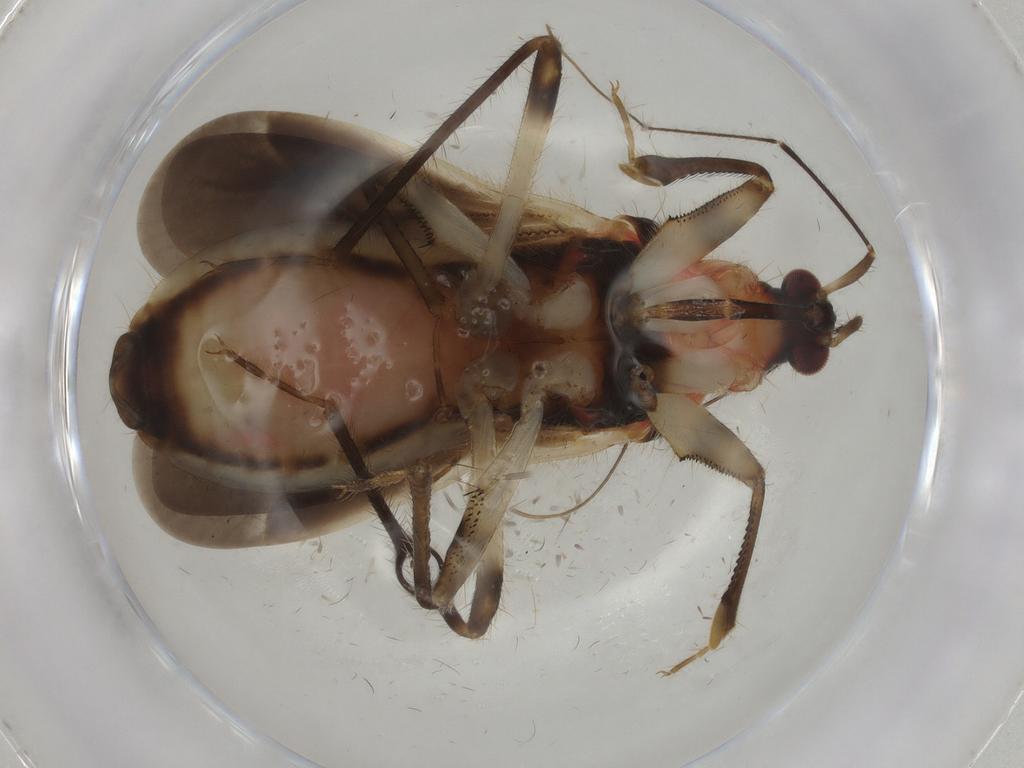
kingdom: Animalia
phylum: Arthropoda
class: Insecta
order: Hemiptera
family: Nabidae
